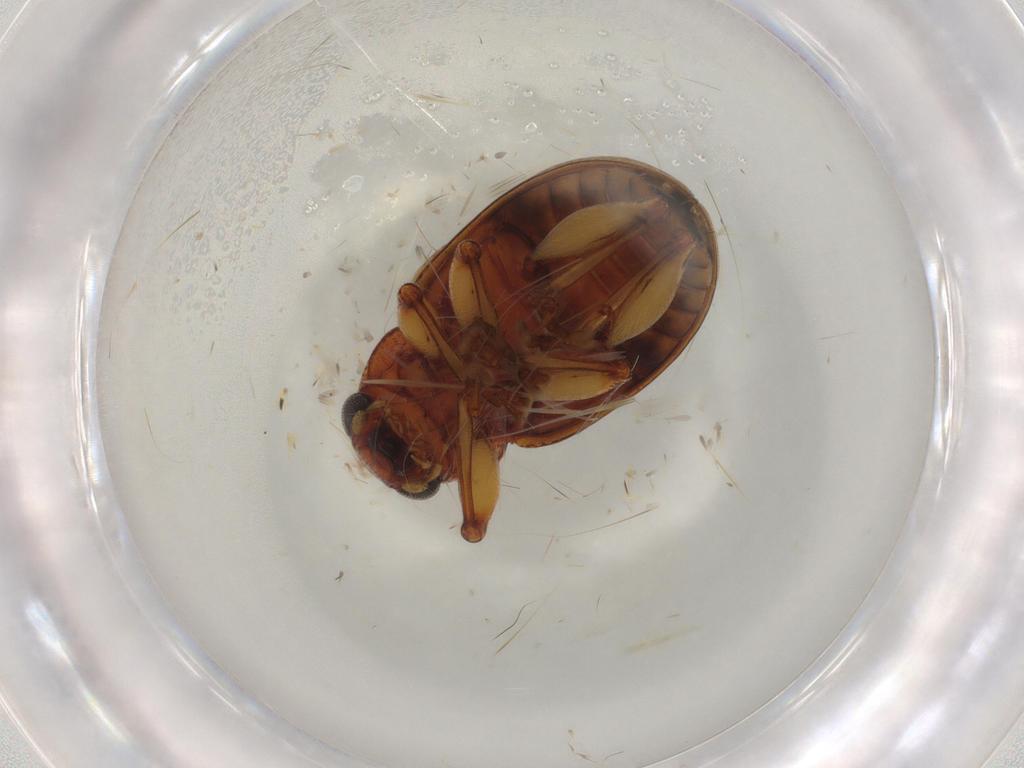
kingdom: Animalia
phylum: Arthropoda
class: Insecta
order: Coleoptera
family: Chrysomelidae
